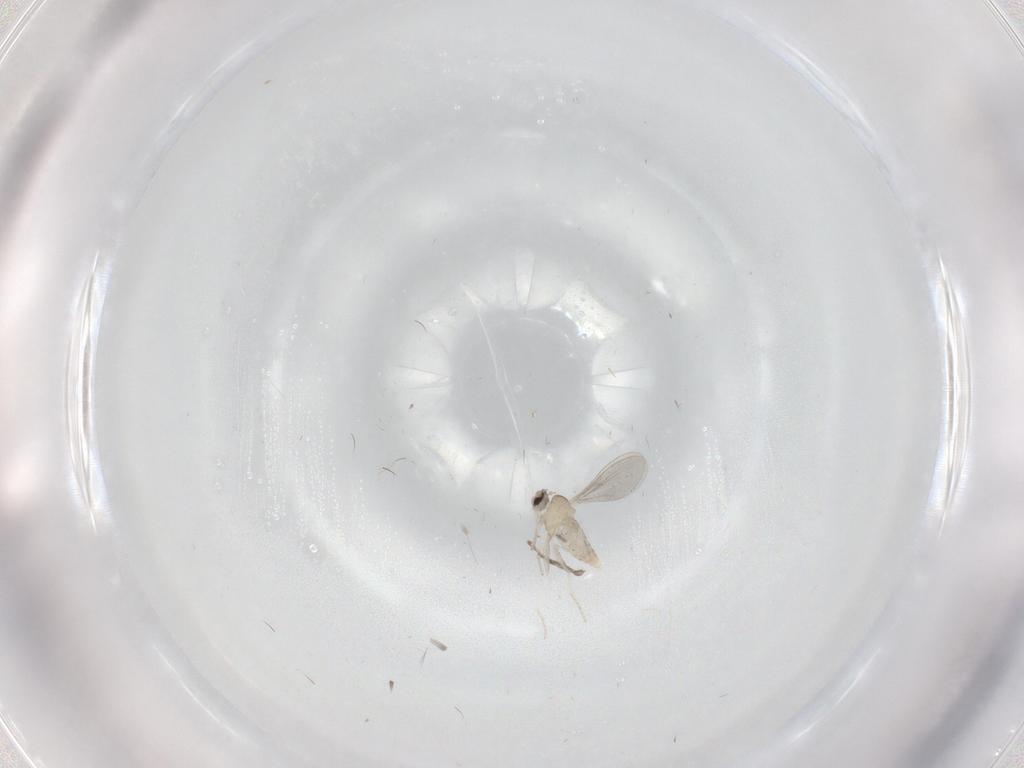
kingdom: Animalia
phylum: Arthropoda
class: Insecta
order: Diptera
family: Cecidomyiidae
